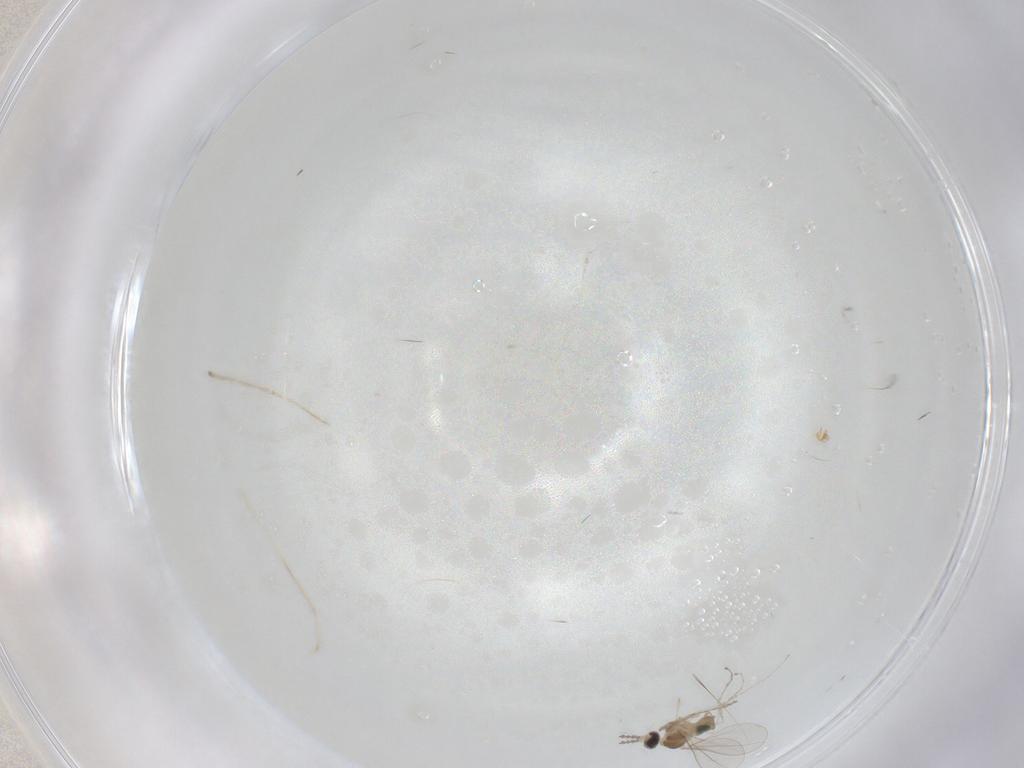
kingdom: Animalia
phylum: Arthropoda
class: Insecta
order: Diptera
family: Cecidomyiidae
